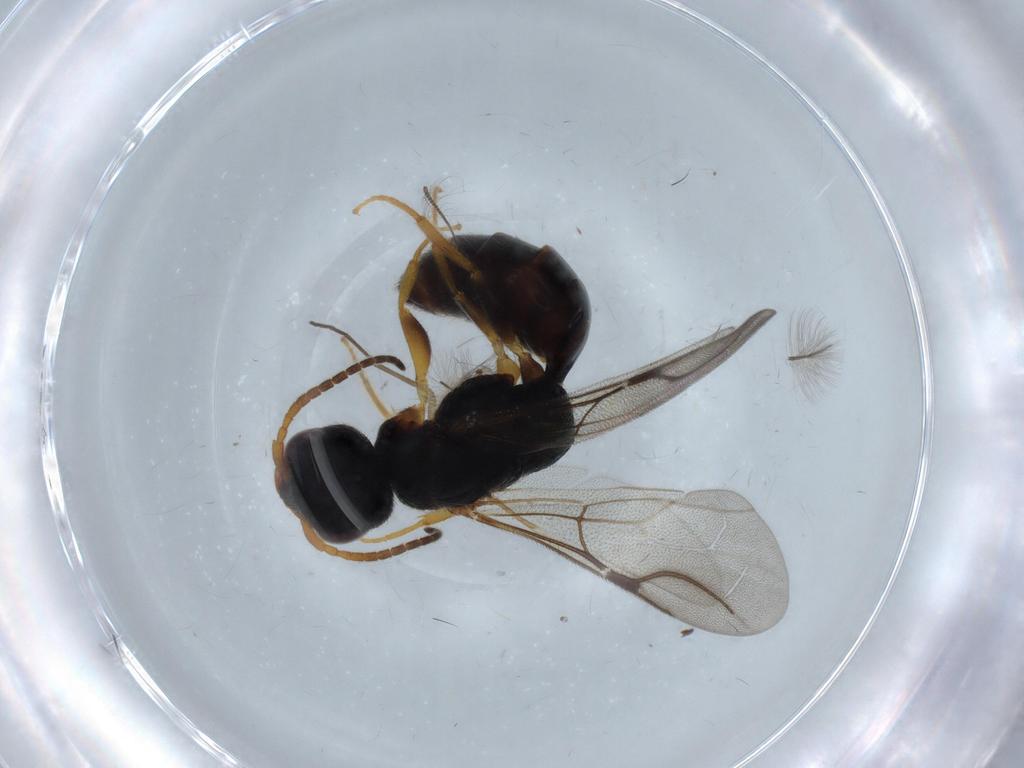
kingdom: Animalia
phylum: Arthropoda
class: Insecta
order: Hymenoptera
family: Bethylidae
